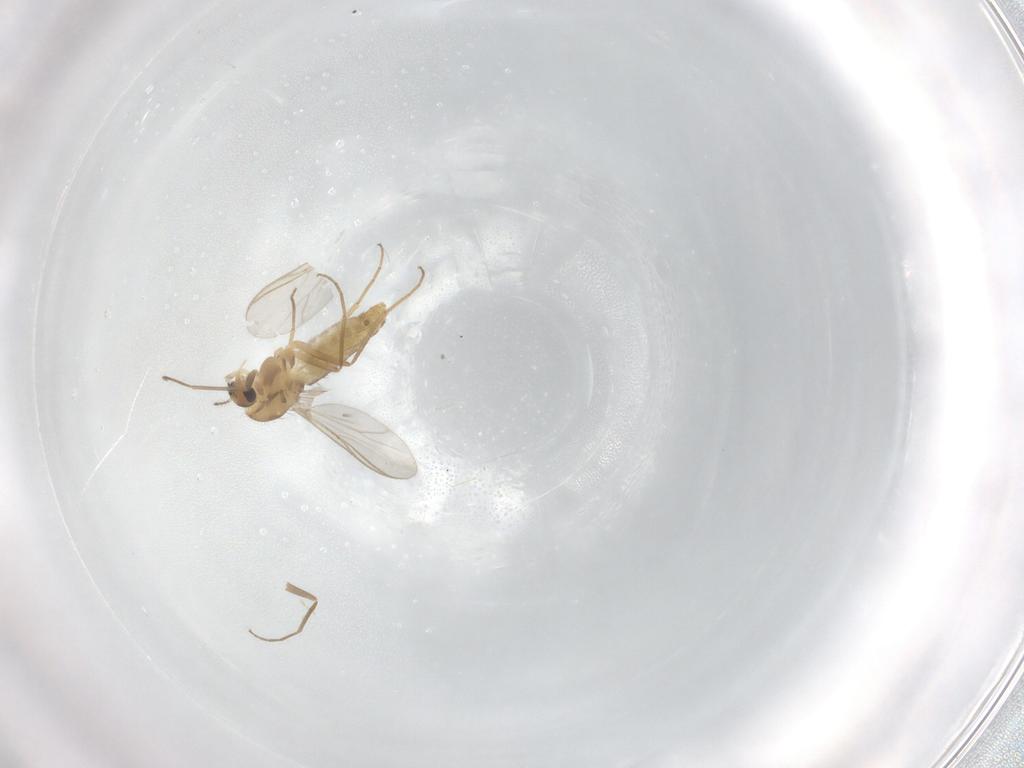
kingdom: Animalia
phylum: Arthropoda
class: Insecta
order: Diptera
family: Chironomidae
